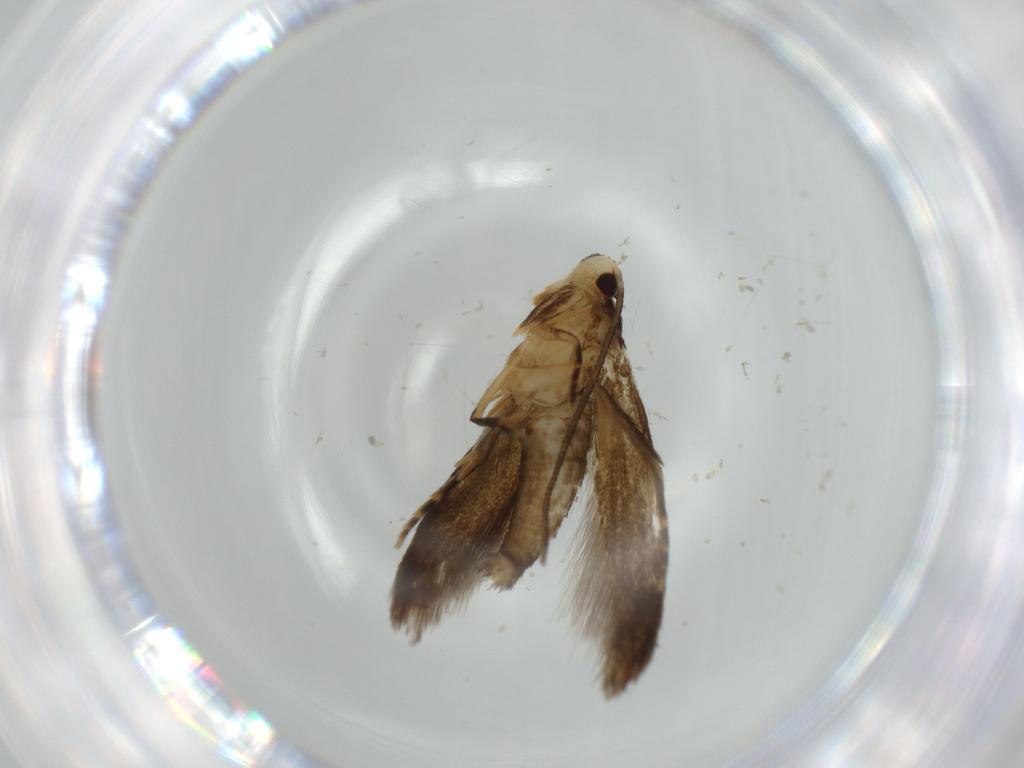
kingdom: Animalia
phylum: Arthropoda
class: Insecta
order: Lepidoptera
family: Tineidae
